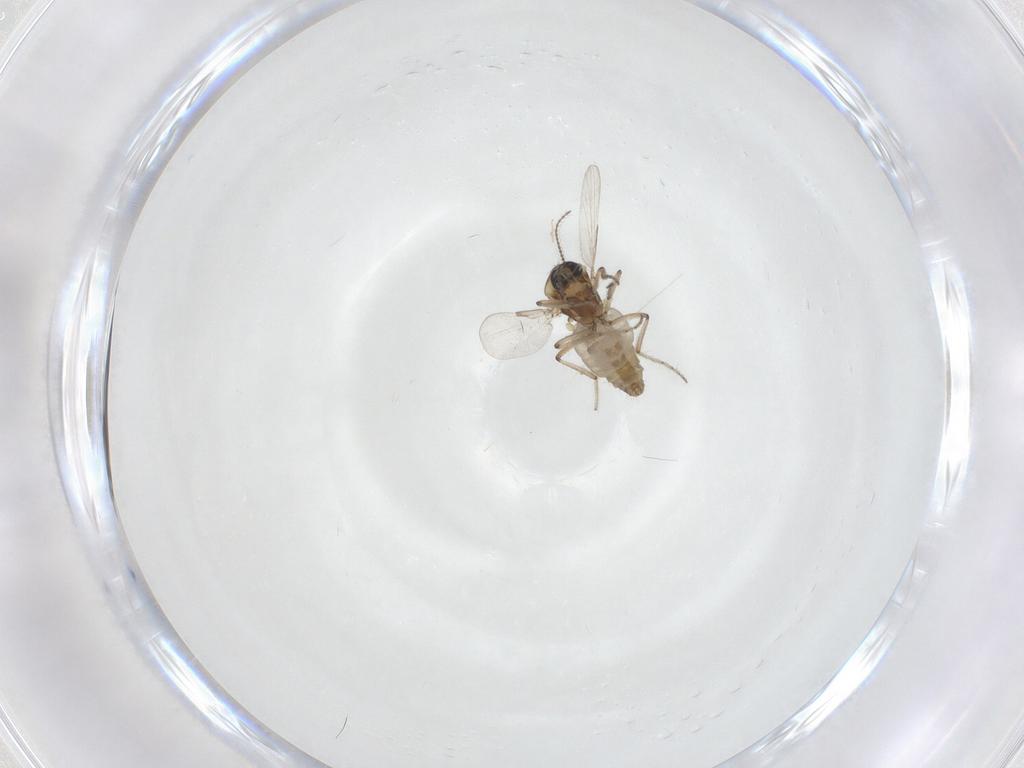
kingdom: Animalia
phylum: Arthropoda
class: Insecta
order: Diptera
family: Ceratopogonidae
